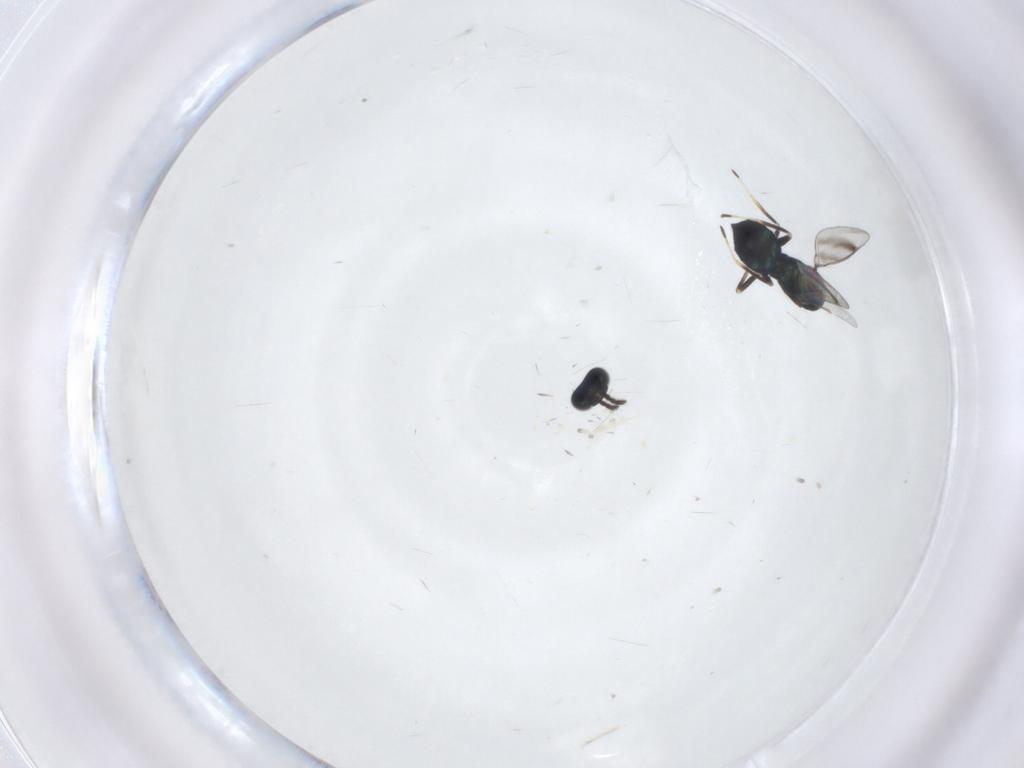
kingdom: Animalia
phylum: Arthropoda
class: Insecta
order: Hymenoptera
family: Eulophidae
